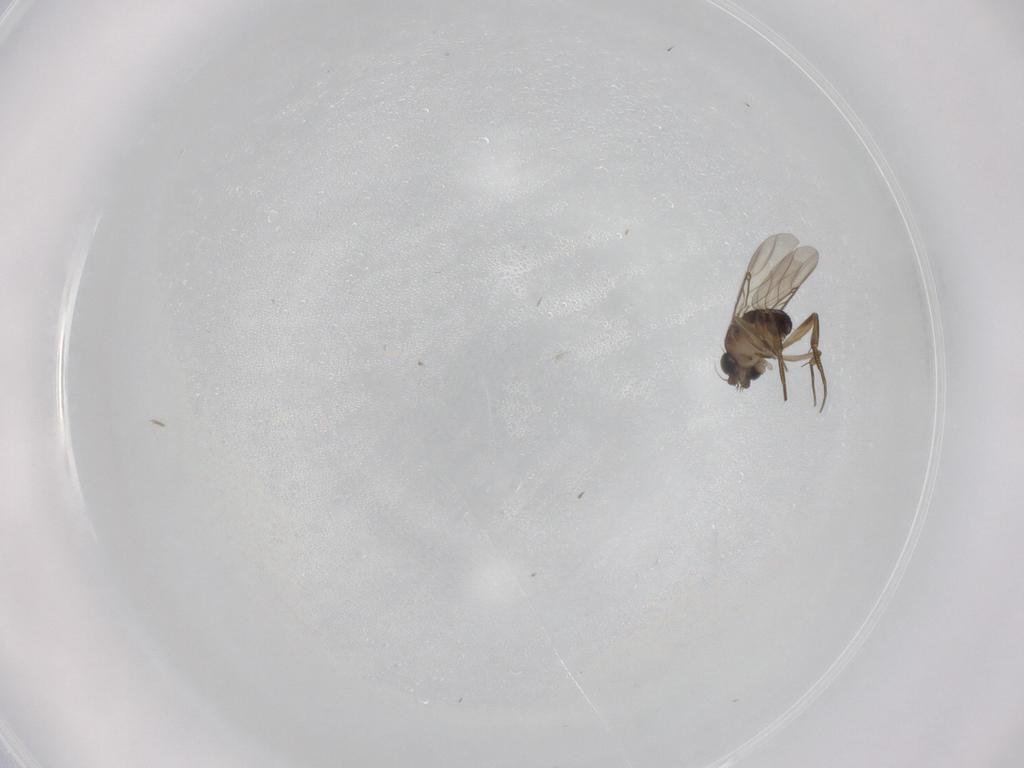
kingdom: Animalia
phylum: Arthropoda
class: Insecta
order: Diptera
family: Phoridae
